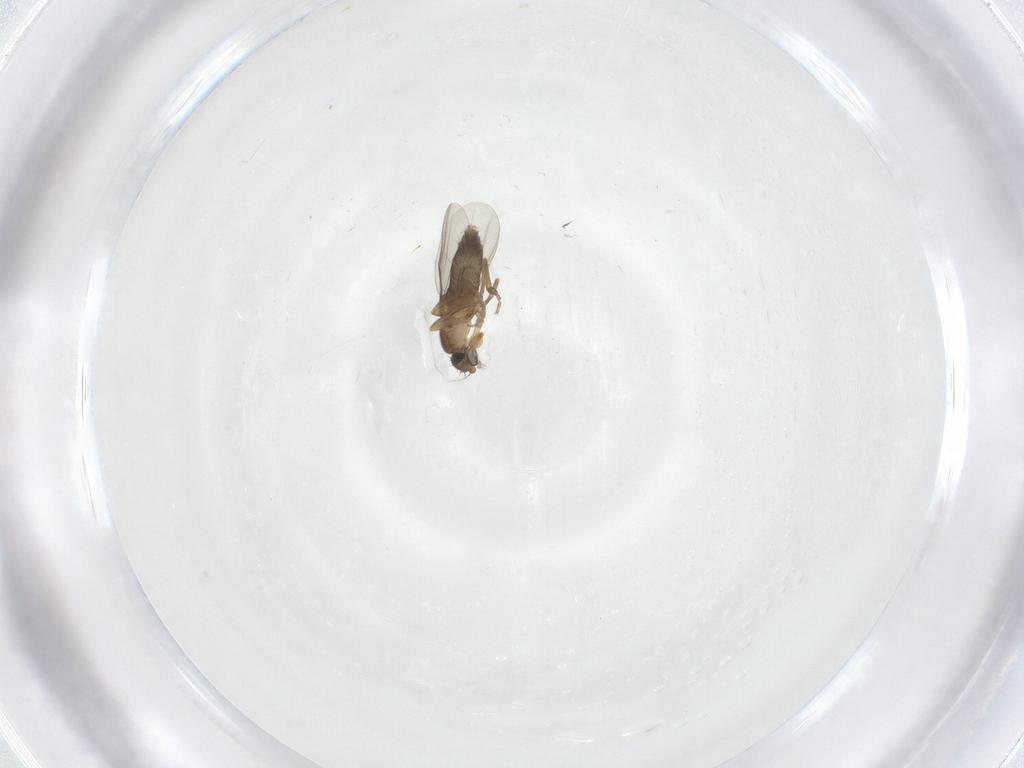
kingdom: Animalia
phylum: Arthropoda
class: Insecta
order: Diptera
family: Phoridae
